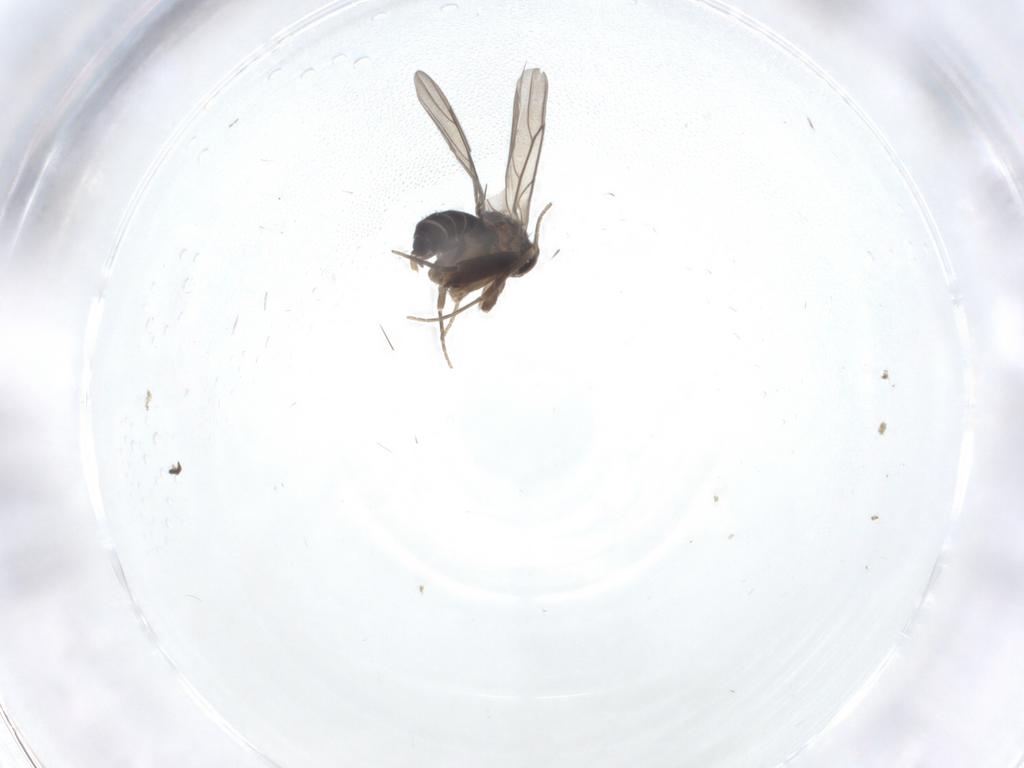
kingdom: Animalia
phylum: Arthropoda
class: Insecta
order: Diptera
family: Phoridae
